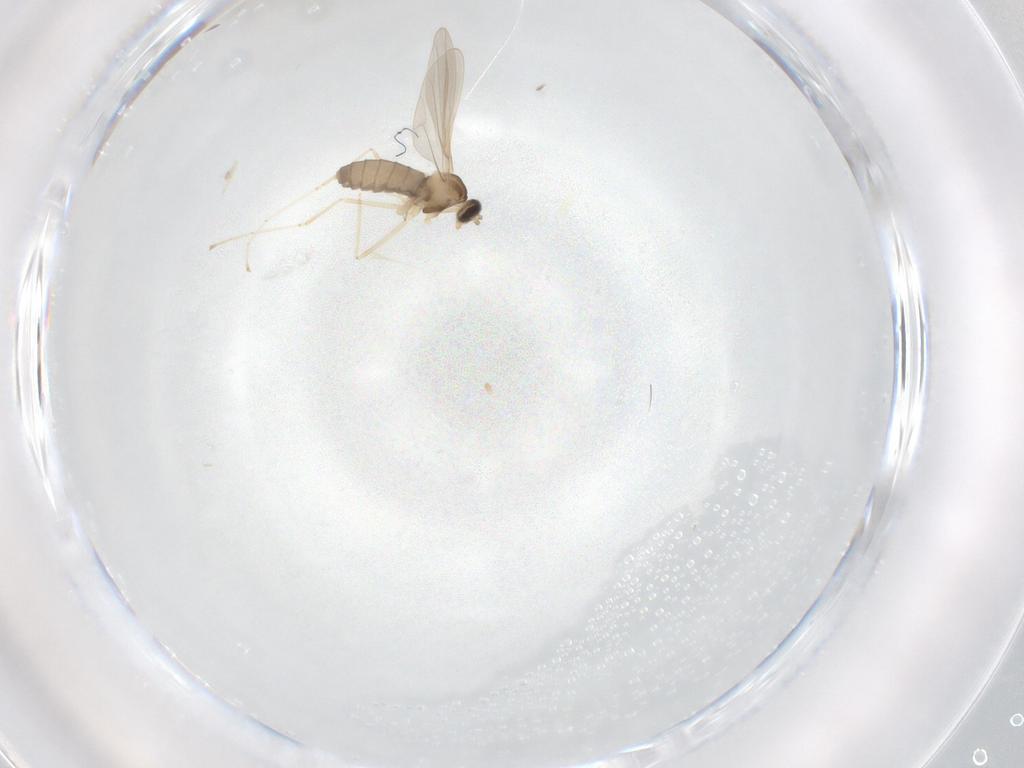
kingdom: Animalia
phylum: Arthropoda
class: Insecta
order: Diptera
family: Cecidomyiidae
